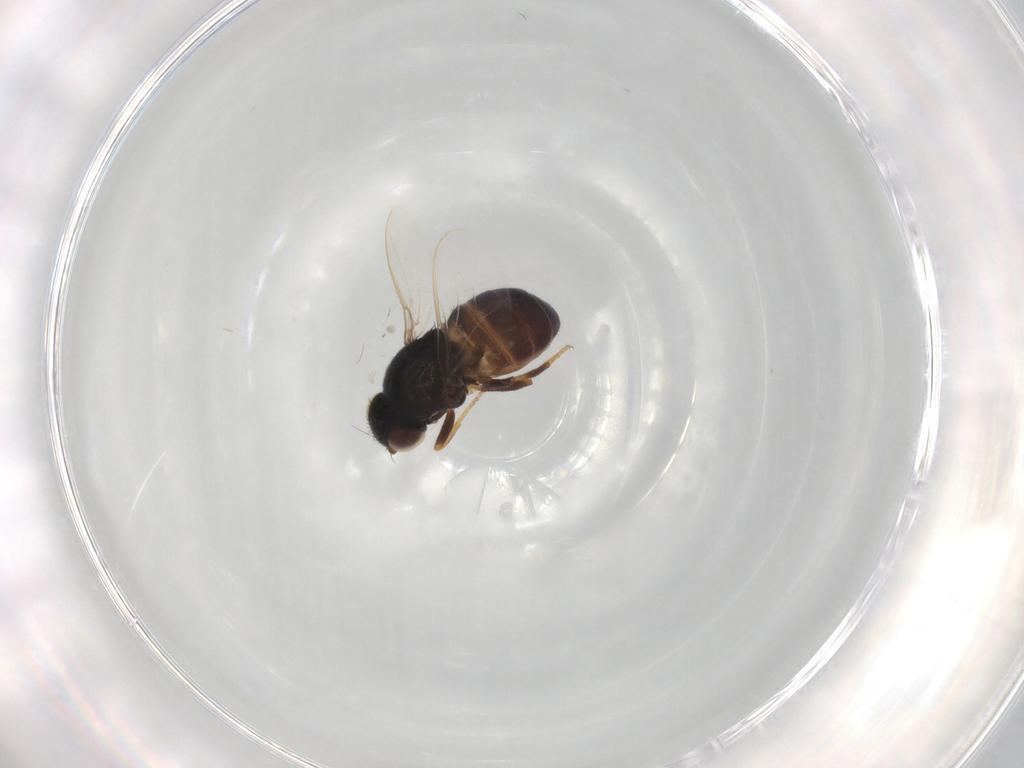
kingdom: Animalia
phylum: Arthropoda
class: Insecta
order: Diptera
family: Chloropidae
